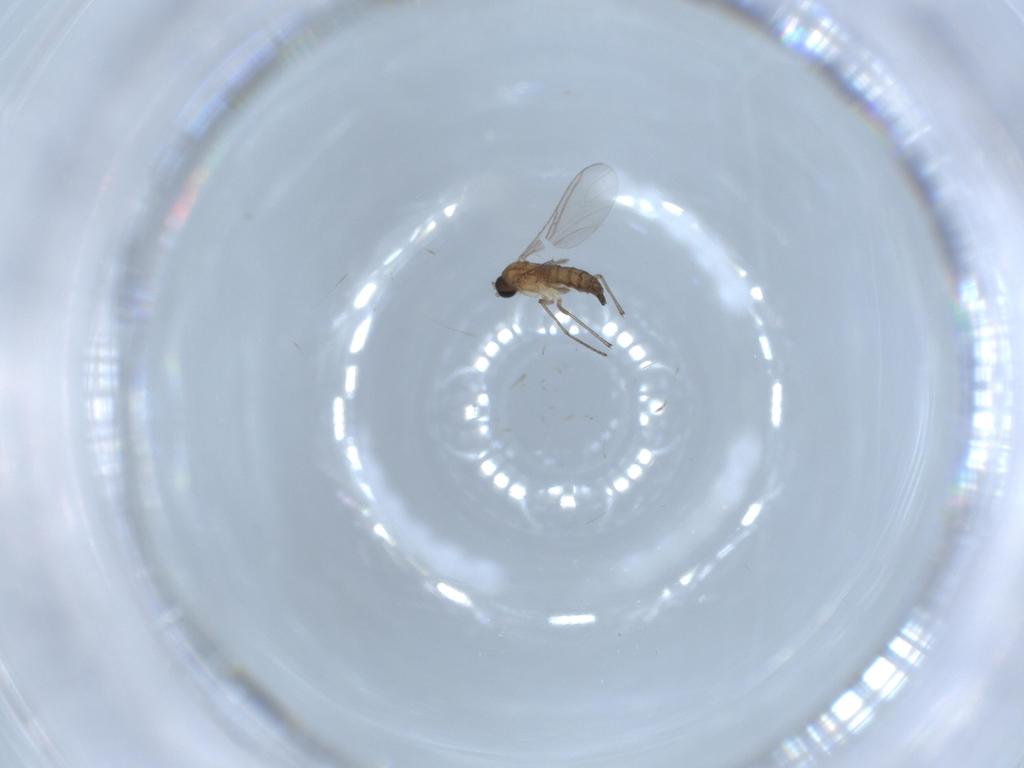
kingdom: Animalia
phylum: Arthropoda
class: Insecta
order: Diptera
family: Sciaridae
